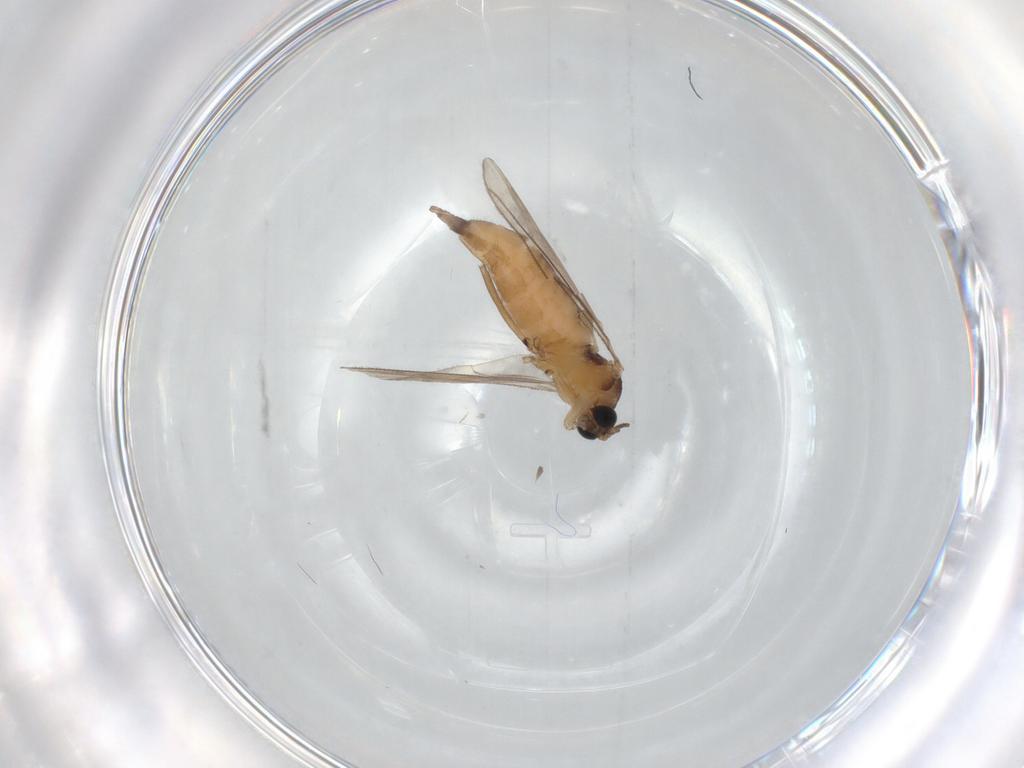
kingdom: Animalia
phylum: Arthropoda
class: Insecta
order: Diptera
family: Sciaridae
